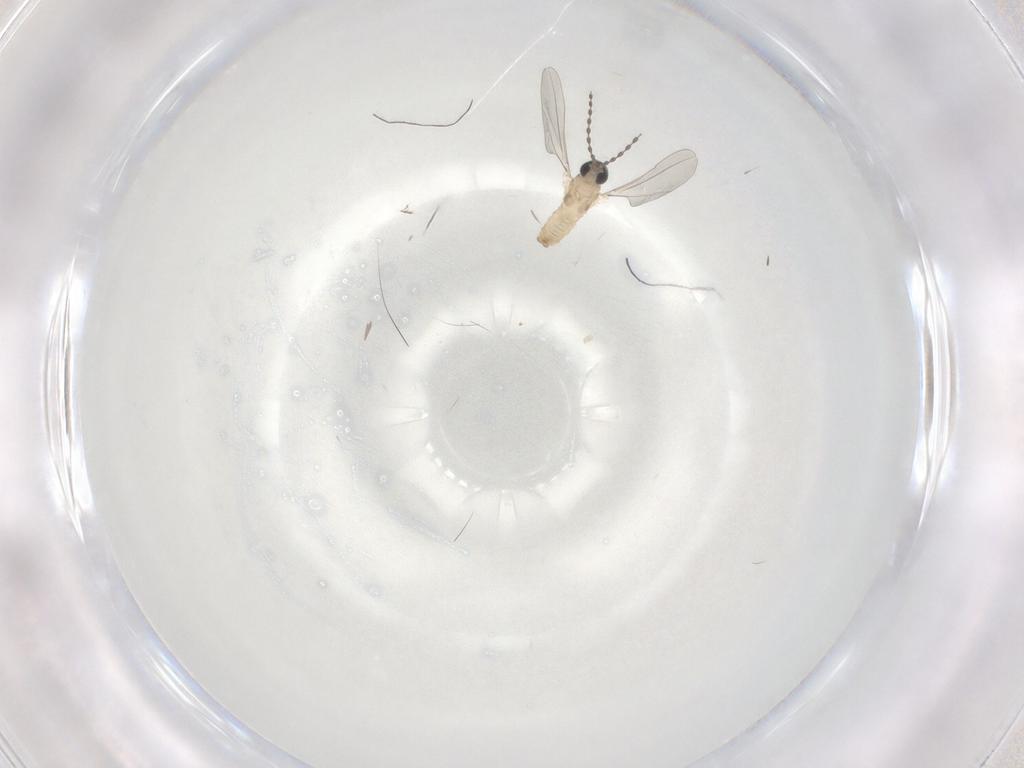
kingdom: Animalia
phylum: Arthropoda
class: Insecta
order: Diptera
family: Cecidomyiidae
